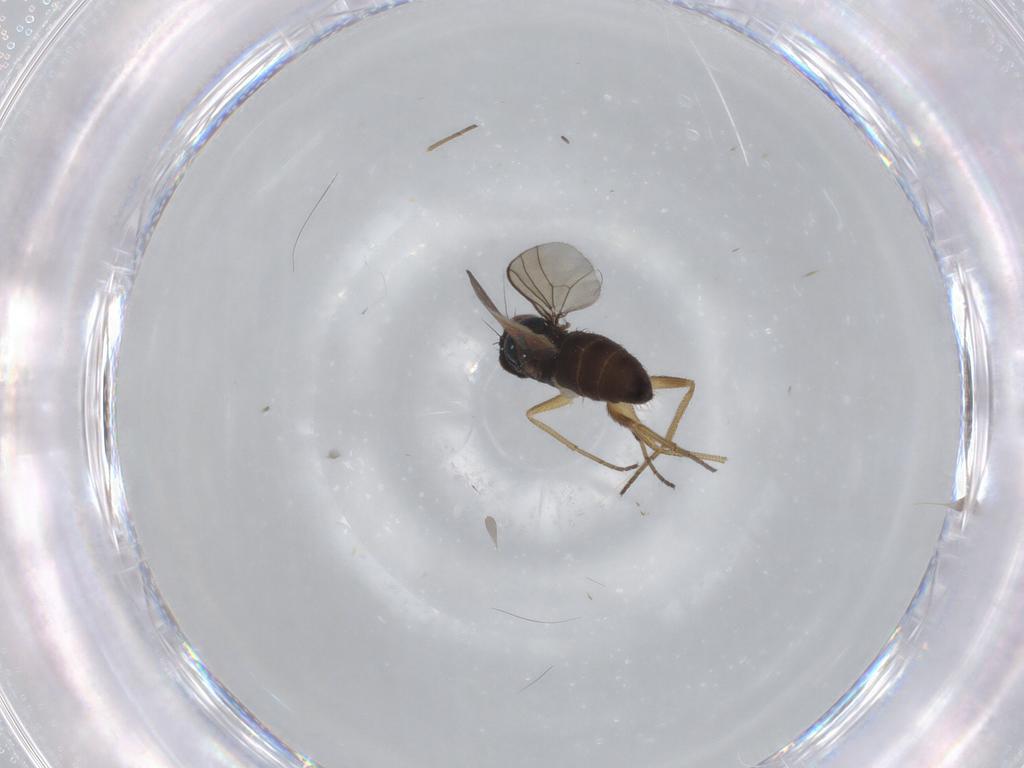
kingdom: Animalia
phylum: Arthropoda
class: Insecta
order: Diptera
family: Dolichopodidae
